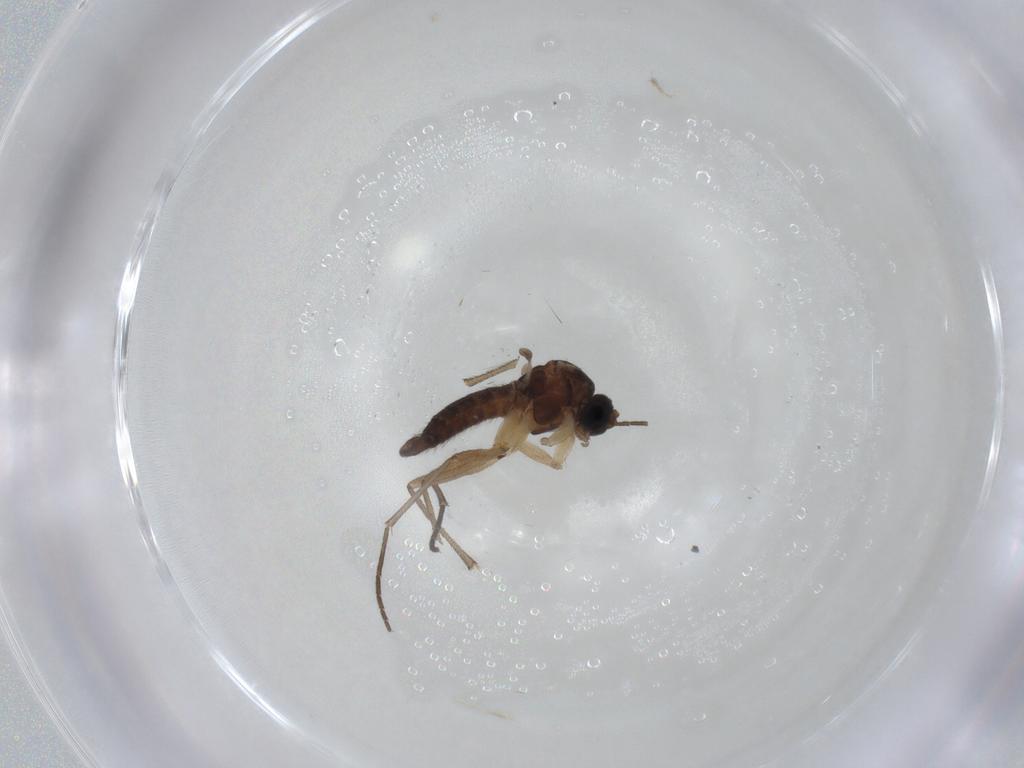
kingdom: Animalia
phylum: Arthropoda
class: Insecta
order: Diptera
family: Sciaridae
